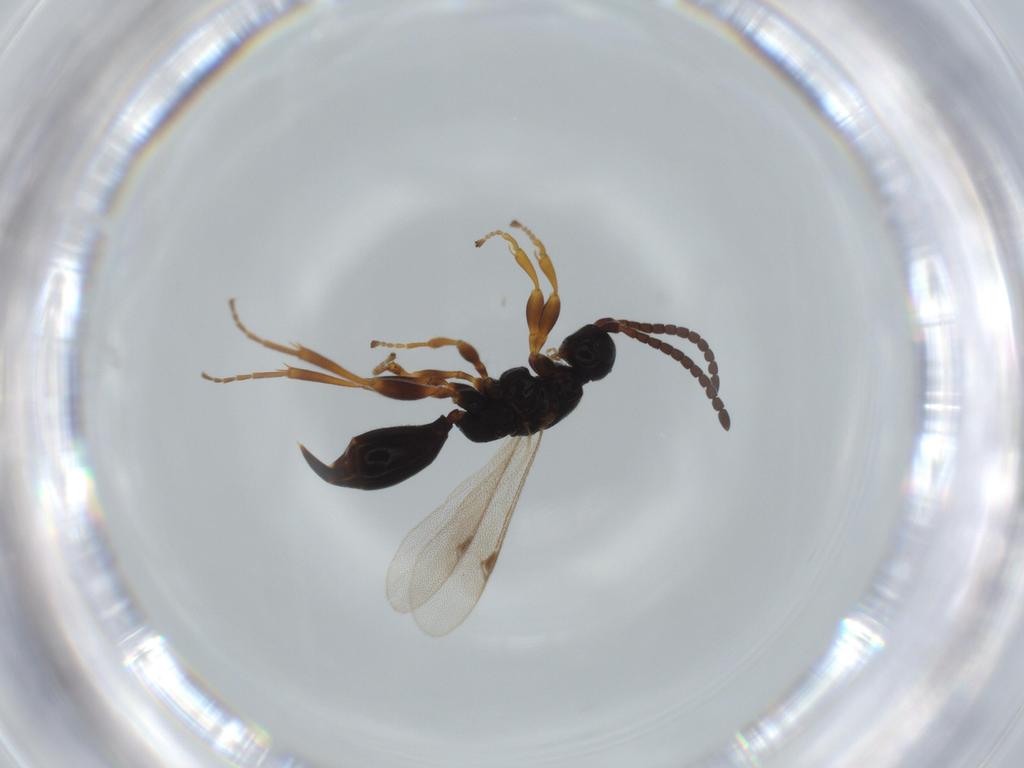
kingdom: Animalia
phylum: Arthropoda
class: Insecta
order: Hymenoptera
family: Proctotrupidae
